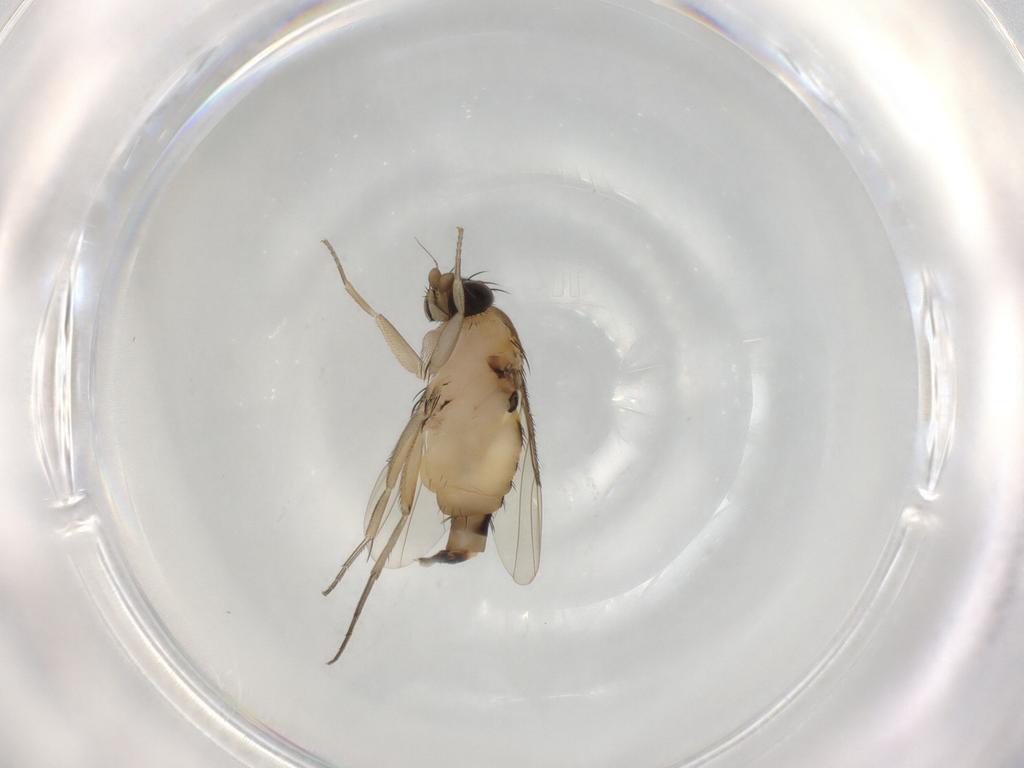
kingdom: Animalia
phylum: Arthropoda
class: Insecta
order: Diptera
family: Phoridae
